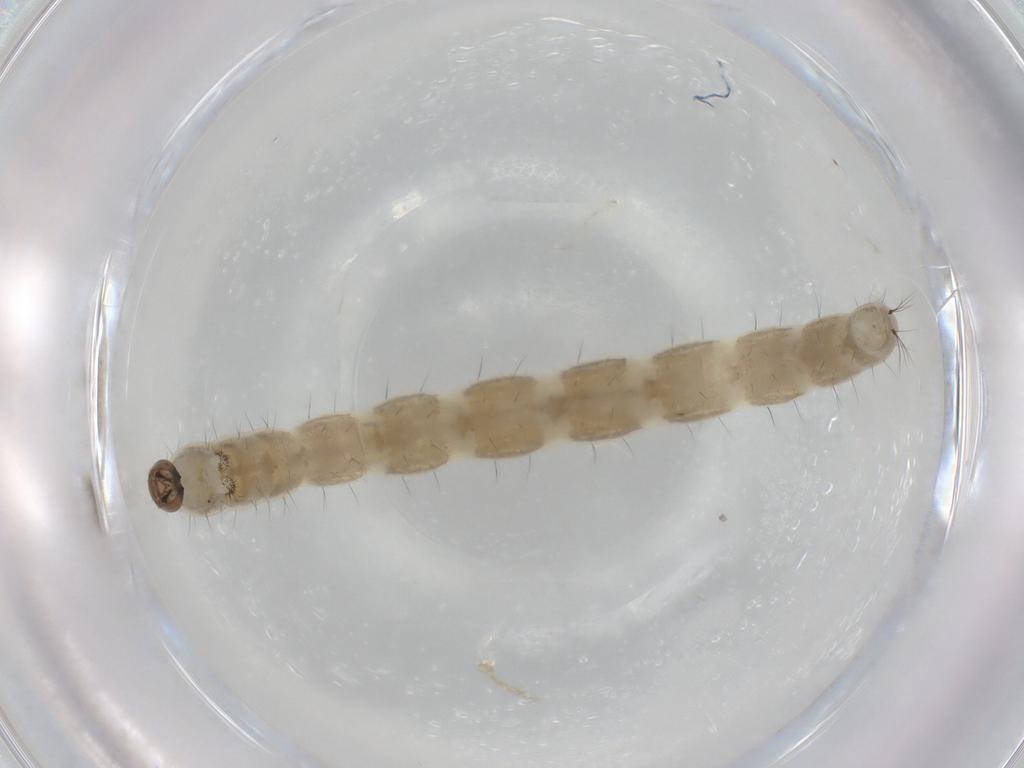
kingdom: Animalia
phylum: Arthropoda
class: Insecta
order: Diptera
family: Chironomidae
